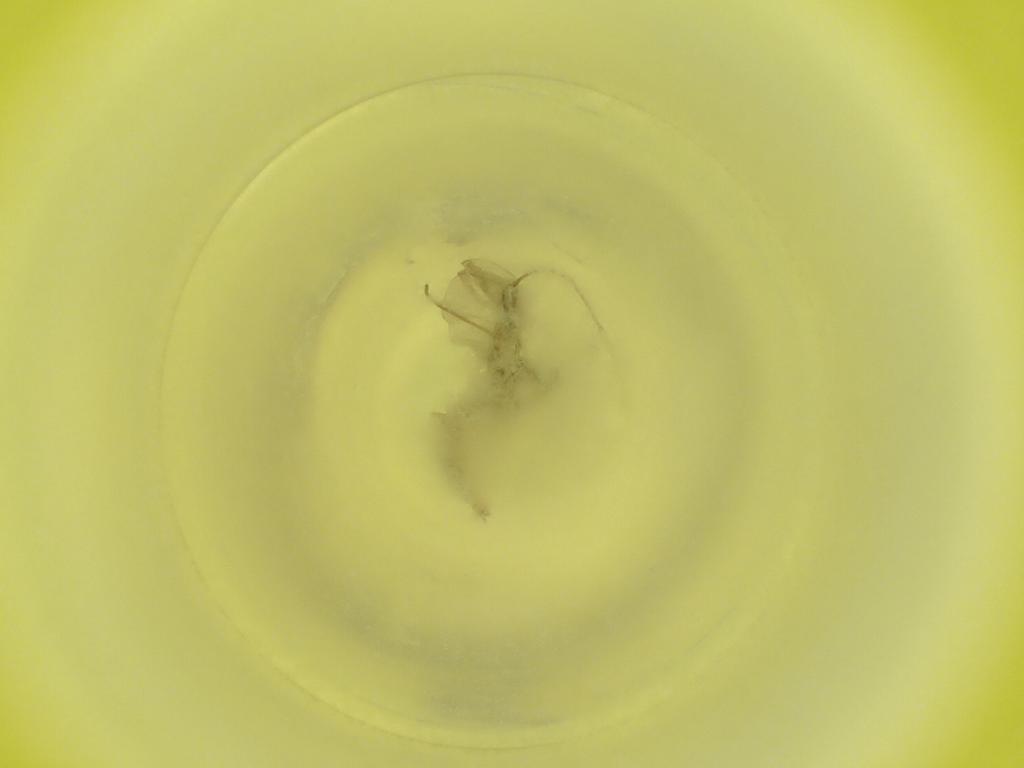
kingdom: Animalia
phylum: Arthropoda
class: Insecta
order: Diptera
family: Cecidomyiidae
